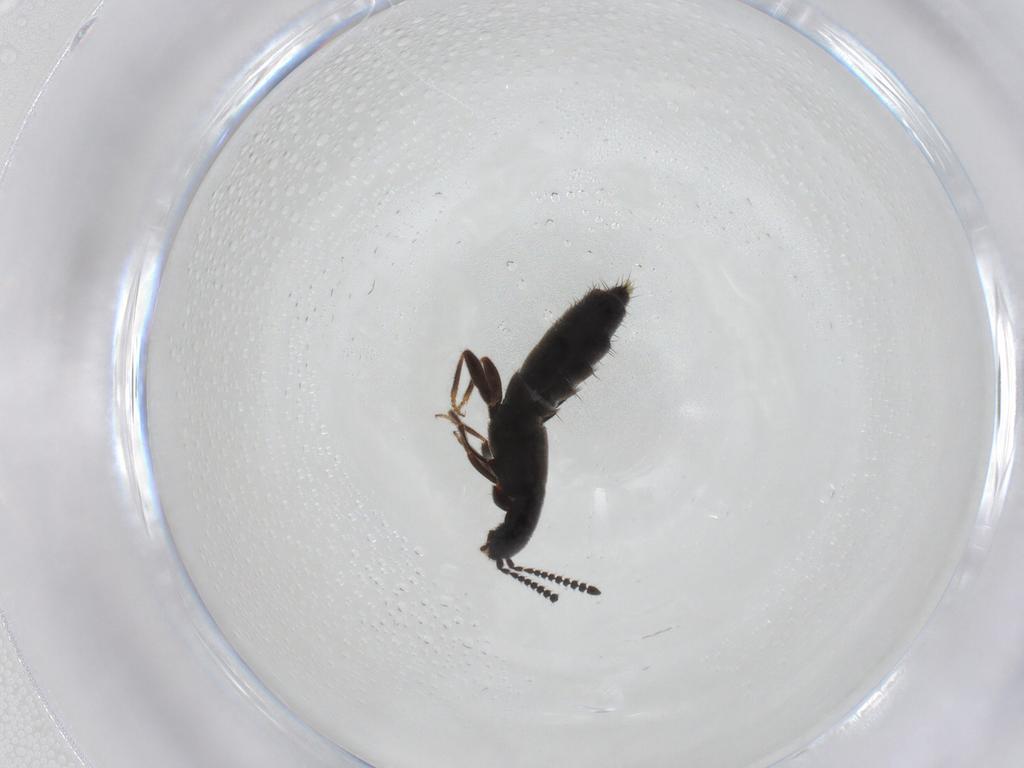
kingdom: Animalia
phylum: Arthropoda
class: Insecta
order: Coleoptera
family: Staphylinidae
